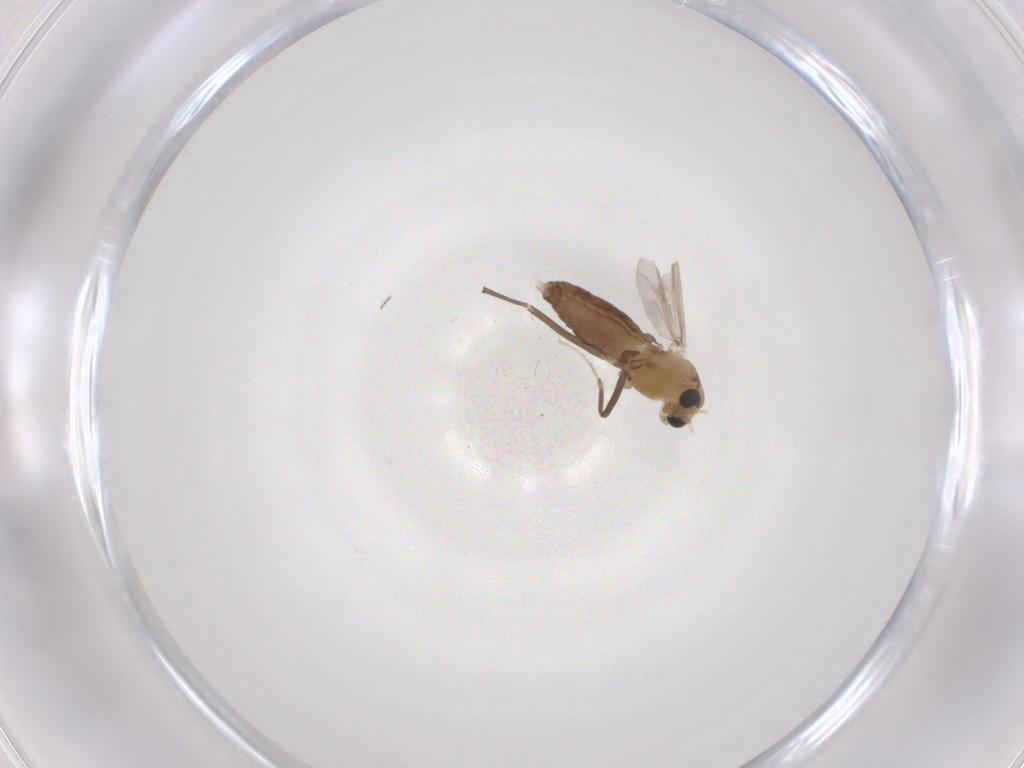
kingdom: Animalia
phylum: Arthropoda
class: Insecta
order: Diptera
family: Chironomidae
